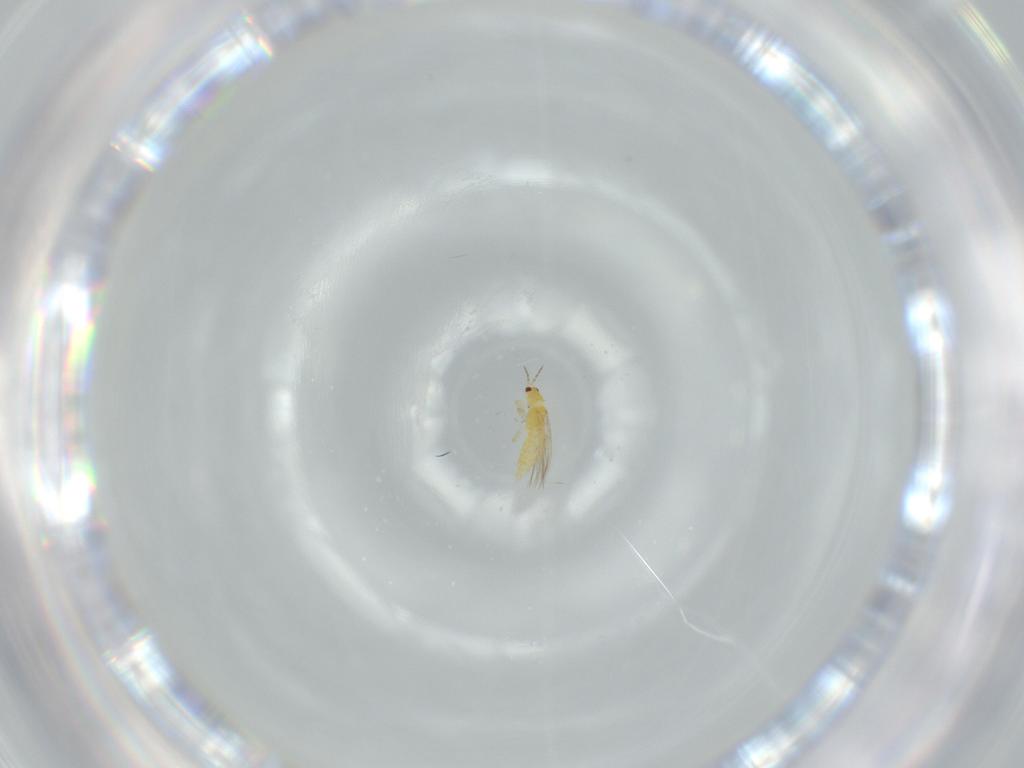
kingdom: Animalia
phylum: Arthropoda
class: Insecta
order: Thysanoptera
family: Thripidae
